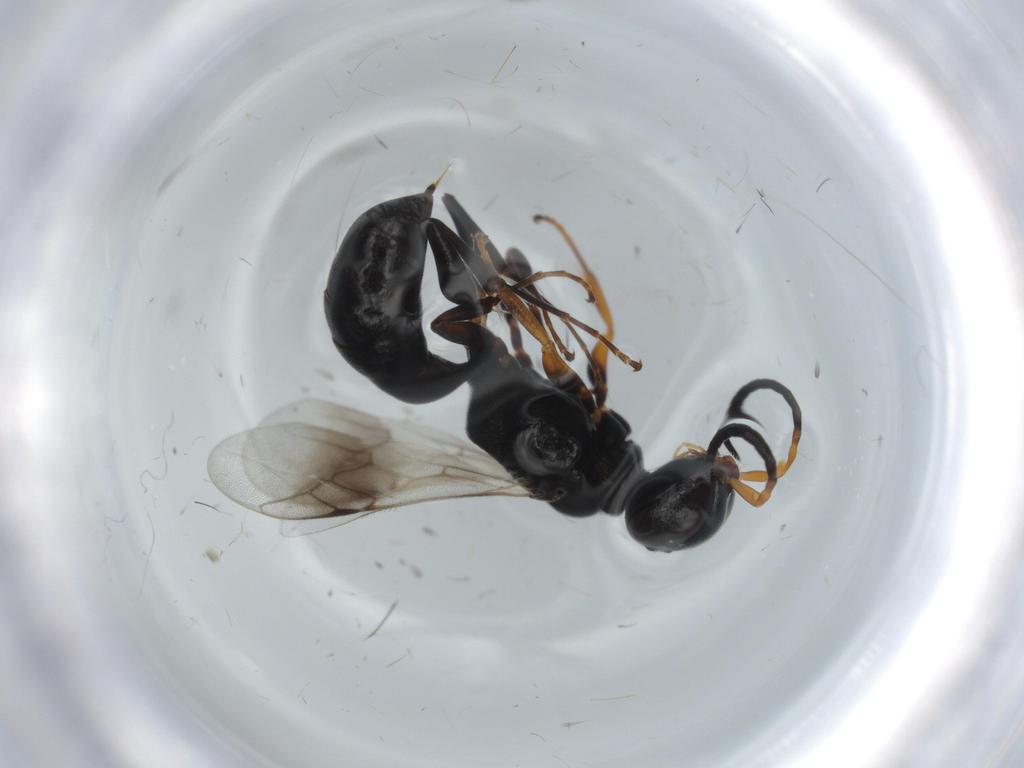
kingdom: Animalia
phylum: Arthropoda
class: Insecta
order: Hymenoptera
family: Crabronidae
